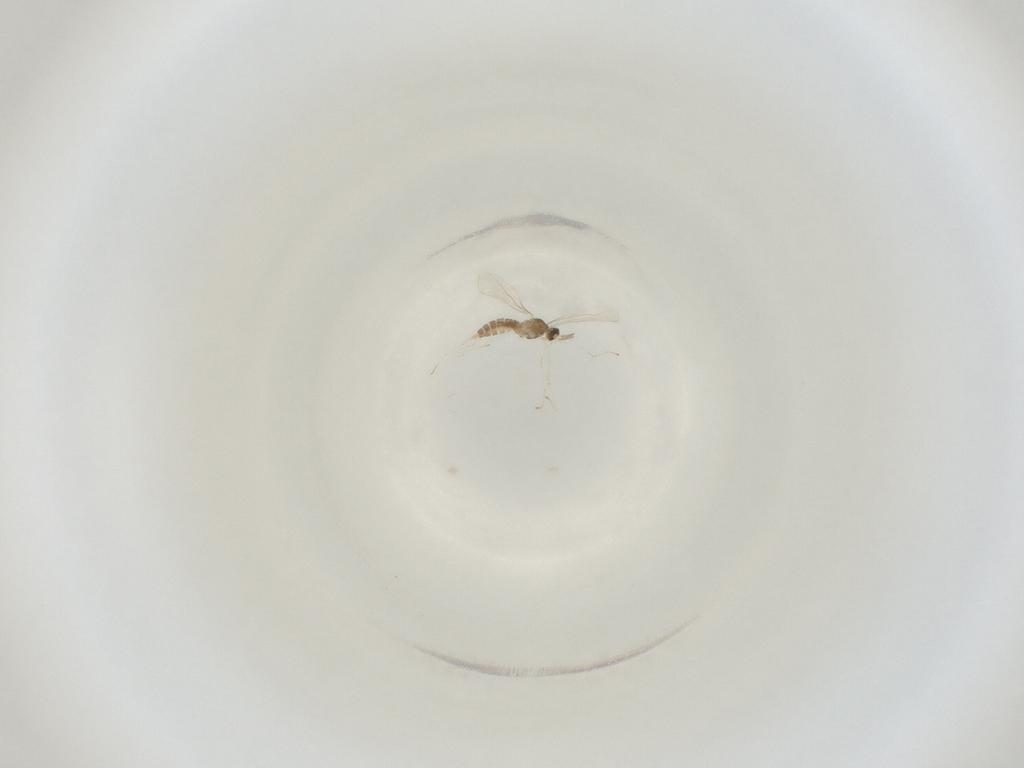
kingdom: Animalia
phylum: Arthropoda
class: Insecta
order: Diptera
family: Cecidomyiidae
